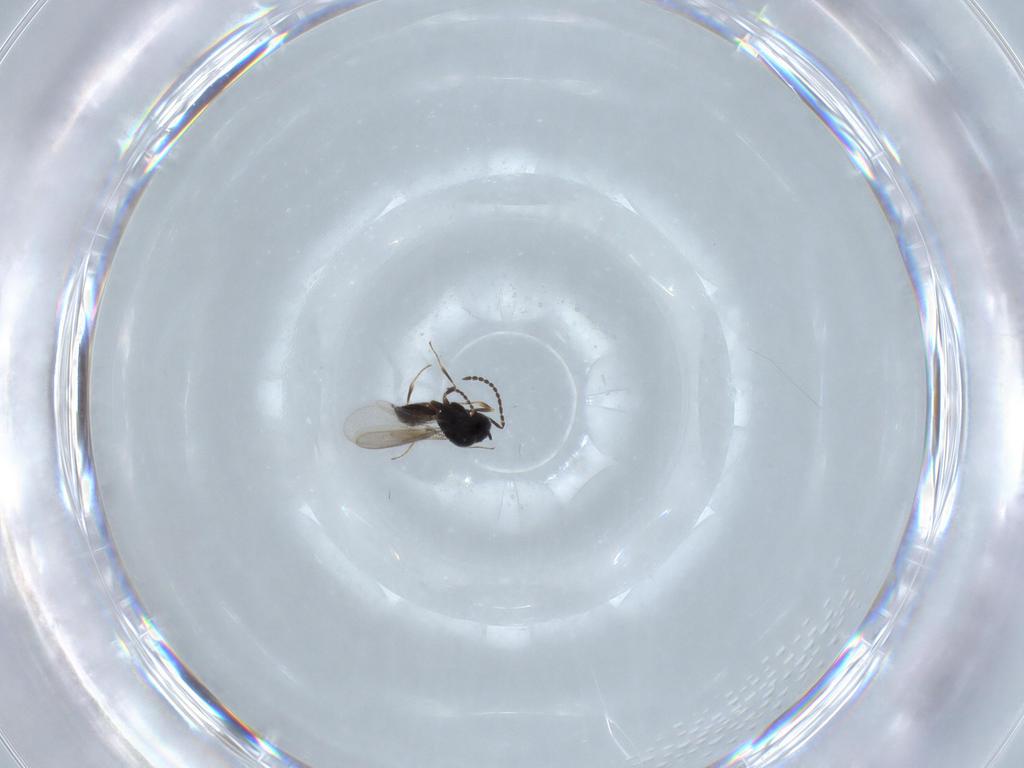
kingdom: Animalia
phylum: Arthropoda
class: Insecta
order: Hymenoptera
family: Scelionidae
